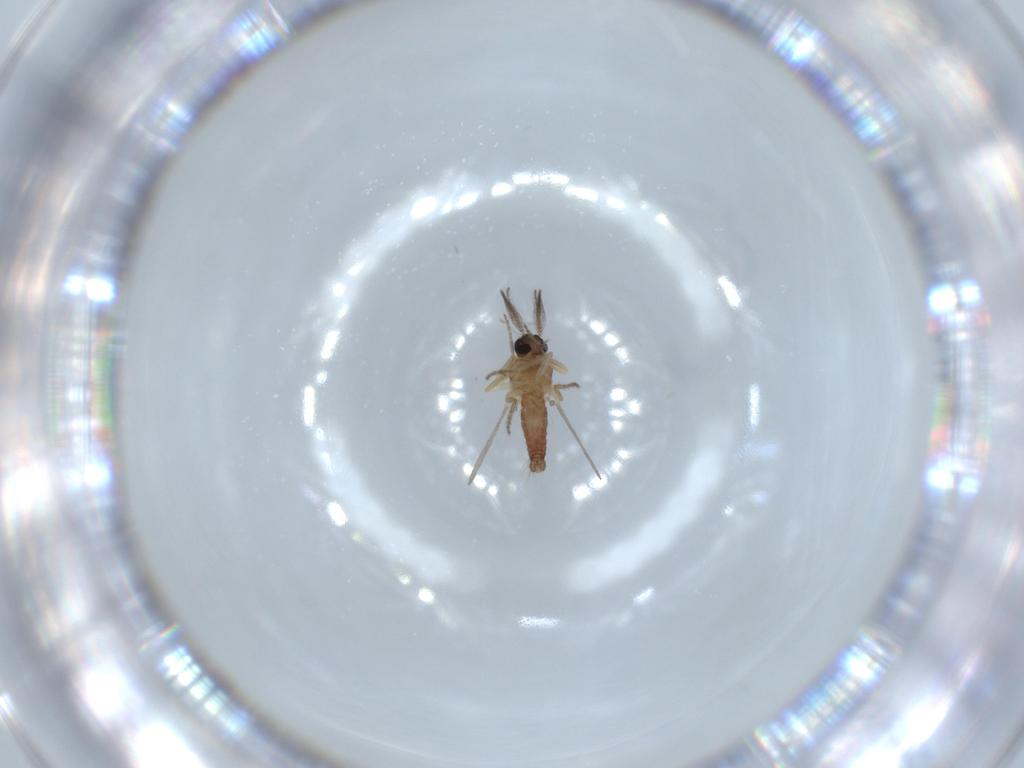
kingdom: Animalia
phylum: Arthropoda
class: Insecta
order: Diptera
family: Ceratopogonidae
